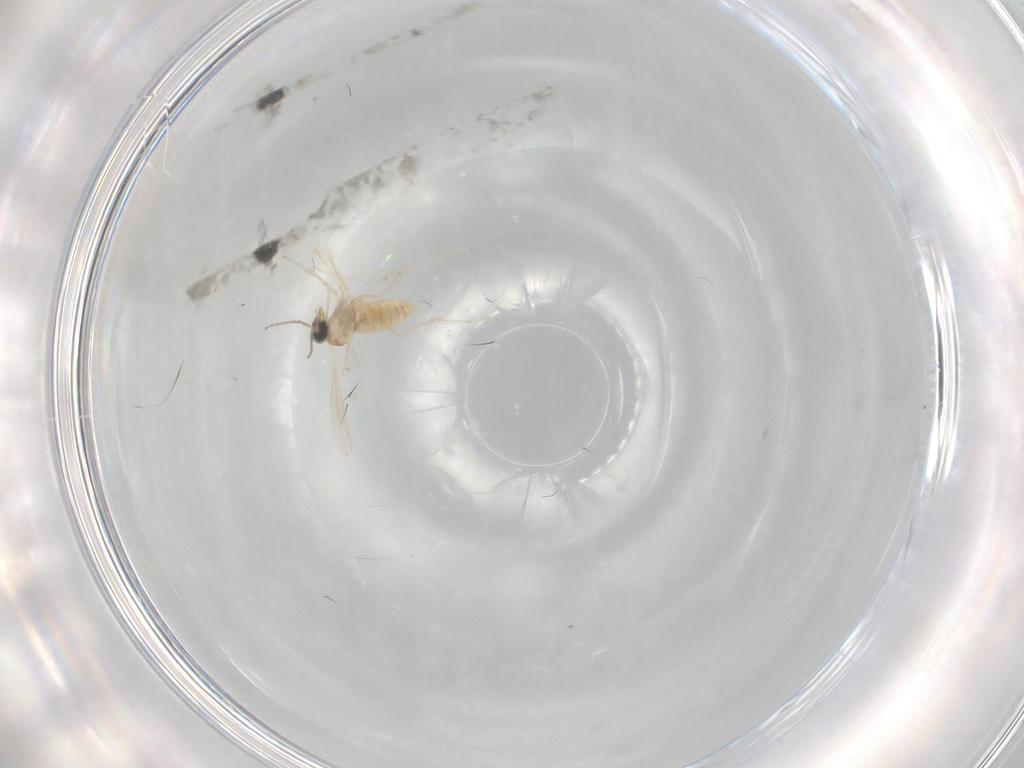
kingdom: Animalia
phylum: Arthropoda
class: Insecta
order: Diptera
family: Cecidomyiidae
